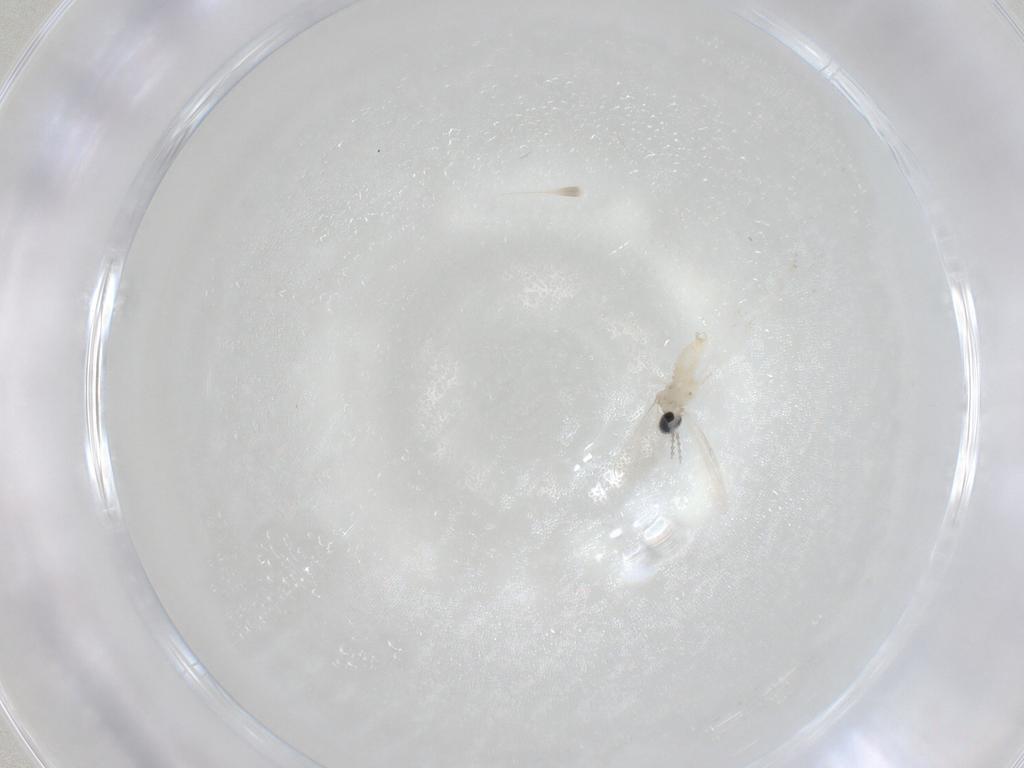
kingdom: Animalia
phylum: Arthropoda
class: Insecta
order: Diptera
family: Cecidomyiidae
